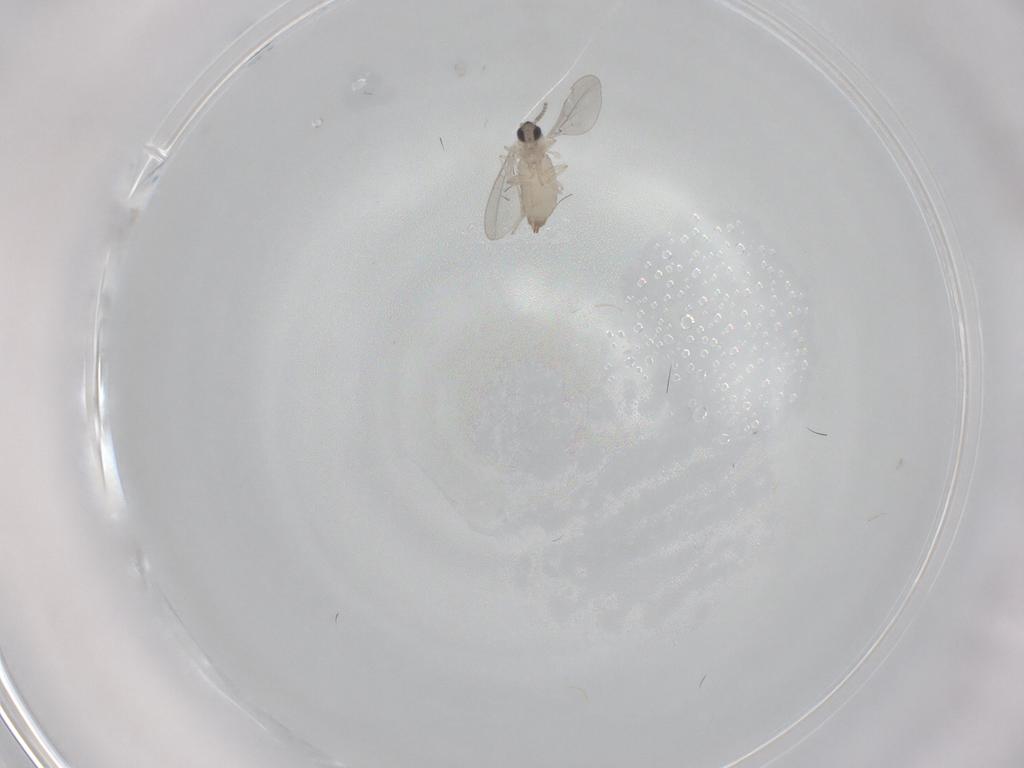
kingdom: Animalia
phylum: Arthropoda
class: Insecta
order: Diptera
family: Cecidomyiidae
